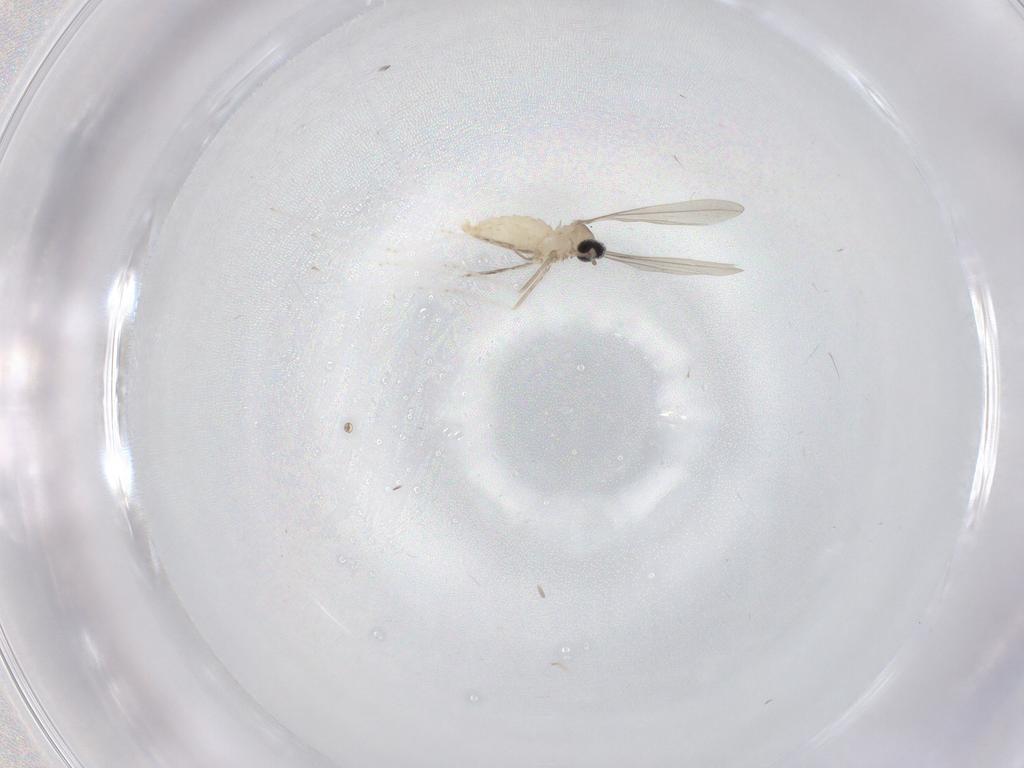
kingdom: Animalia
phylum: Arthropoda
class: Insecta
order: Diptera
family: Cecidomyiidae
